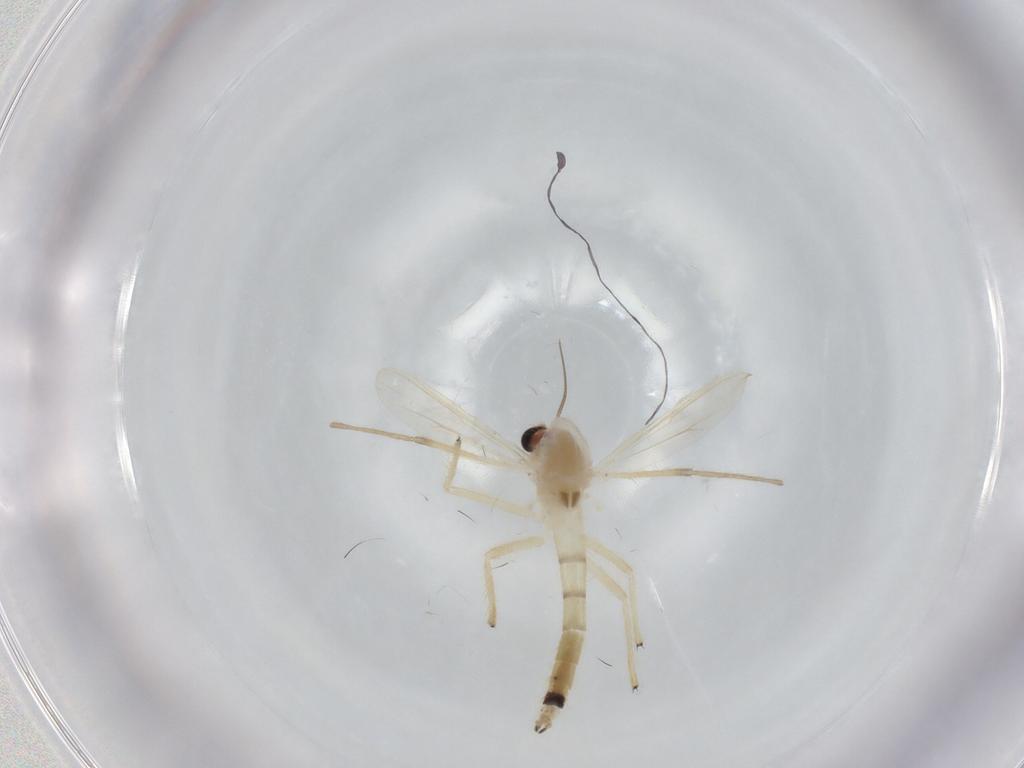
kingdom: Animalia
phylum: Arthropoda
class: Insecta
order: Diptera
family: Chironomidae
